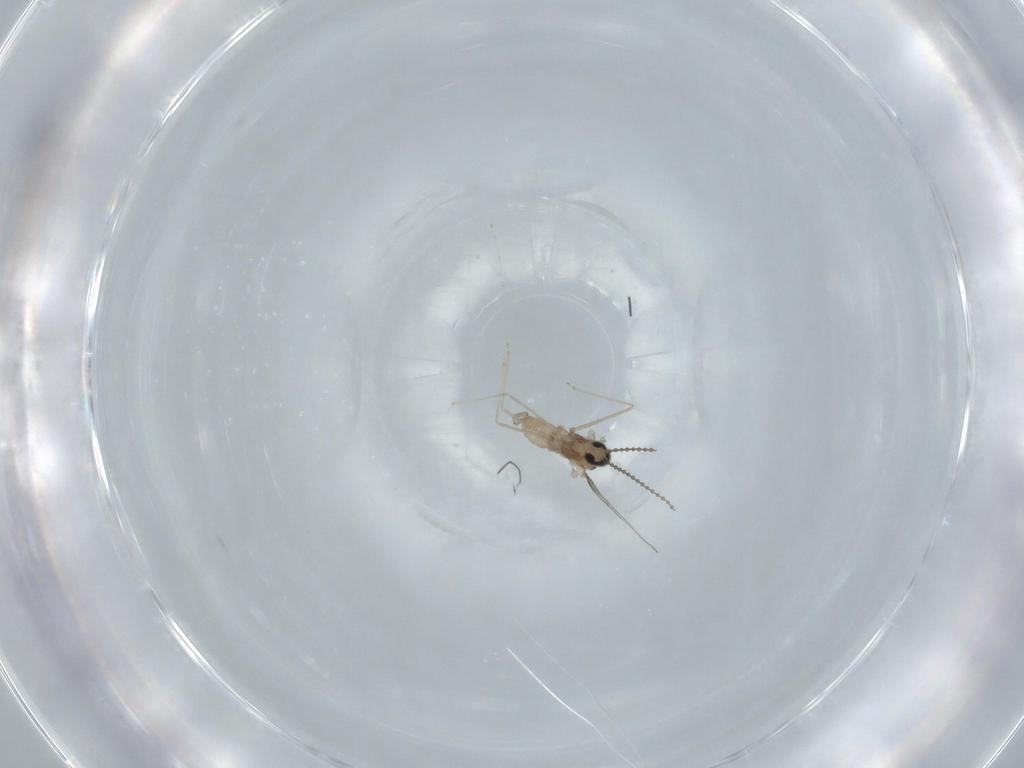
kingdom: Animalia
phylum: Arthropoda
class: Insecta
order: Diptera
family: Cecidomyiidae
